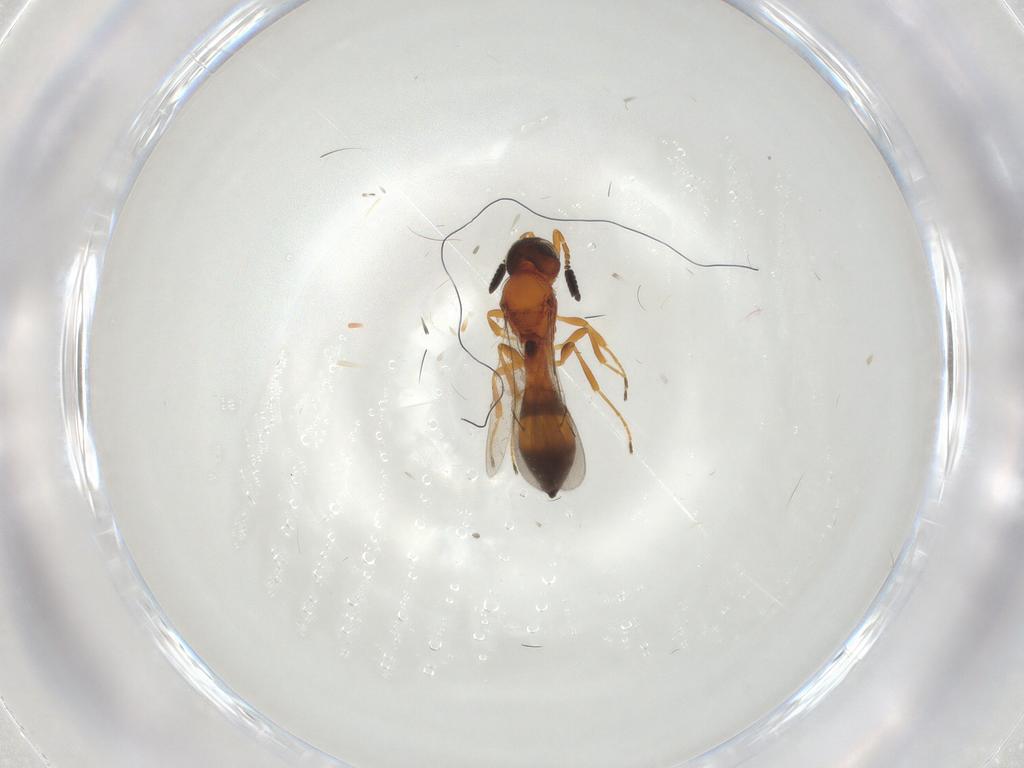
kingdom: Animalia
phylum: Arthropoda
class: Insecta
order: Hymenoptera
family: Scelionidae
